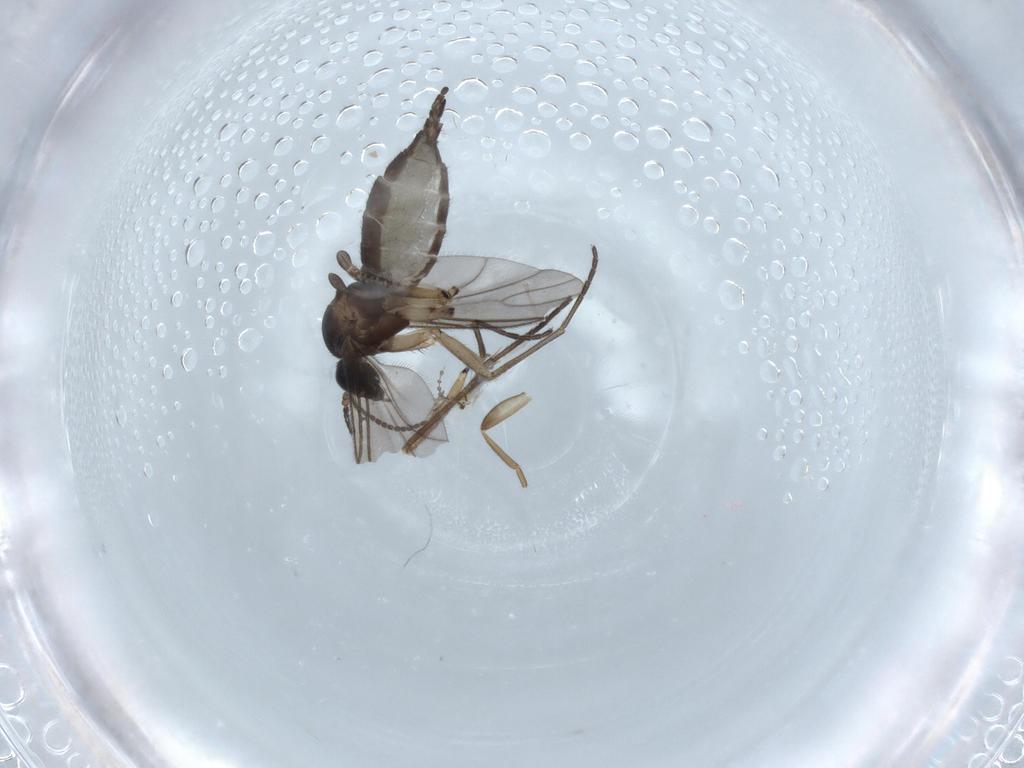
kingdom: Animalia
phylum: Arthropoda
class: Insecta
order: Diptera
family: Sciaridae
